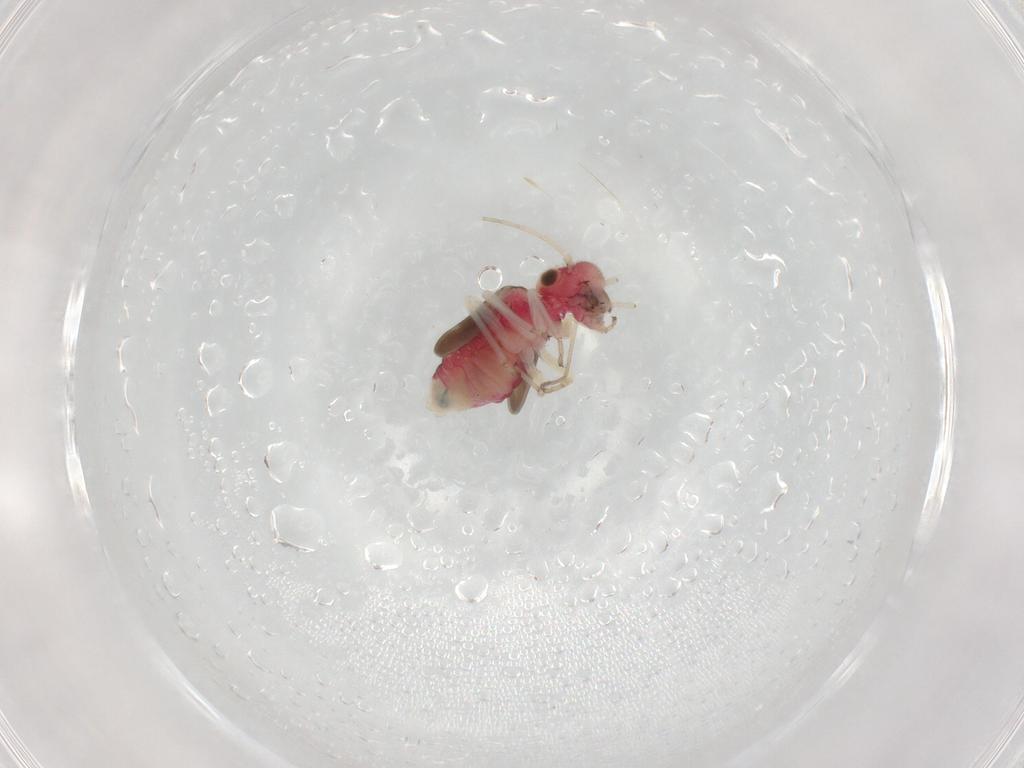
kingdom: Animalia
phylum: Arthropoda
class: Insecta
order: Psocodea
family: Caeciliusidae
